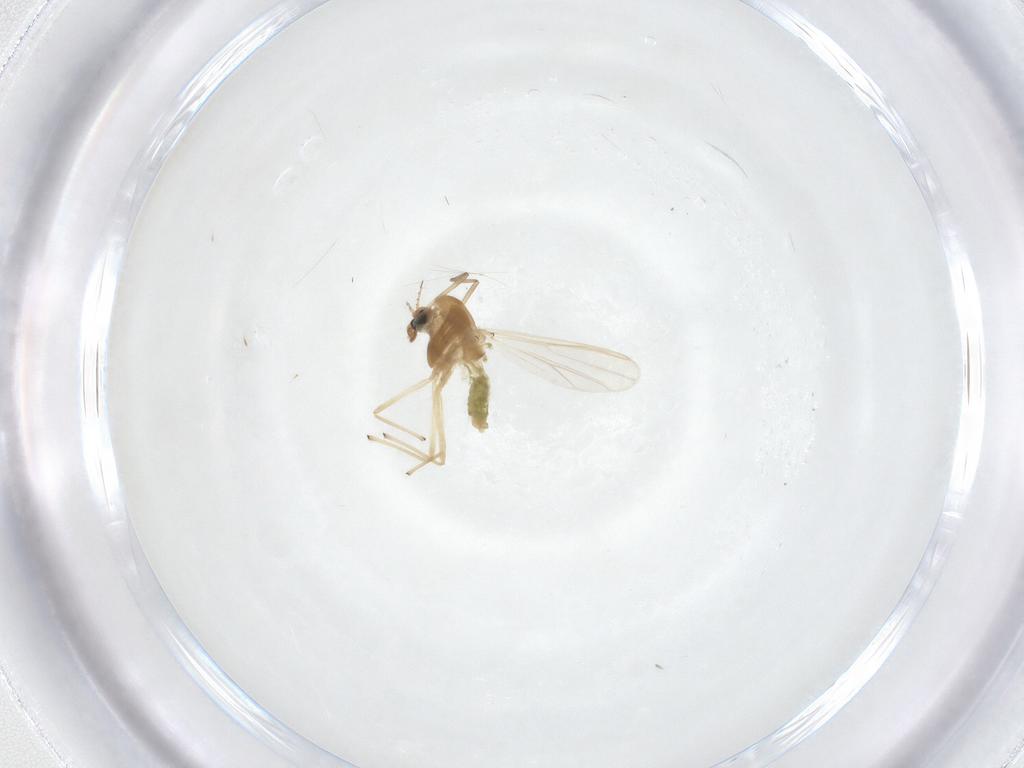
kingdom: Animalia
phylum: Arthropoda
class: Insecta
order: Diptera
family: Chironomidae
